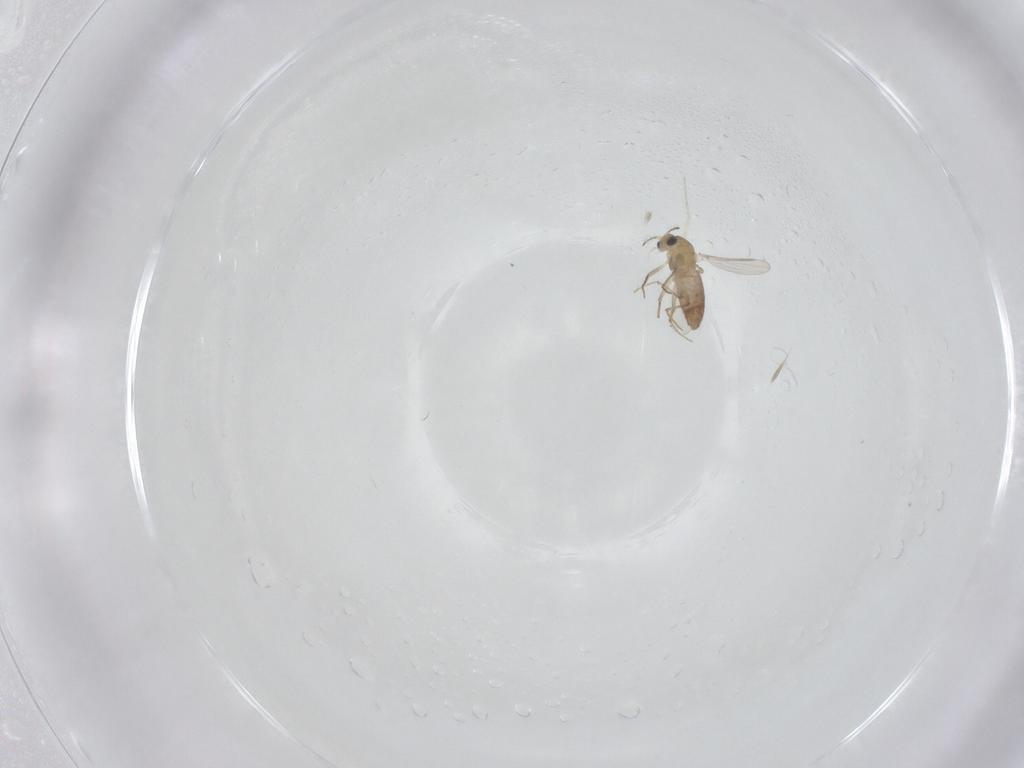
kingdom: Animalia
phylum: Arthropoda
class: Insecta
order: Diptera
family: Chironomidae
